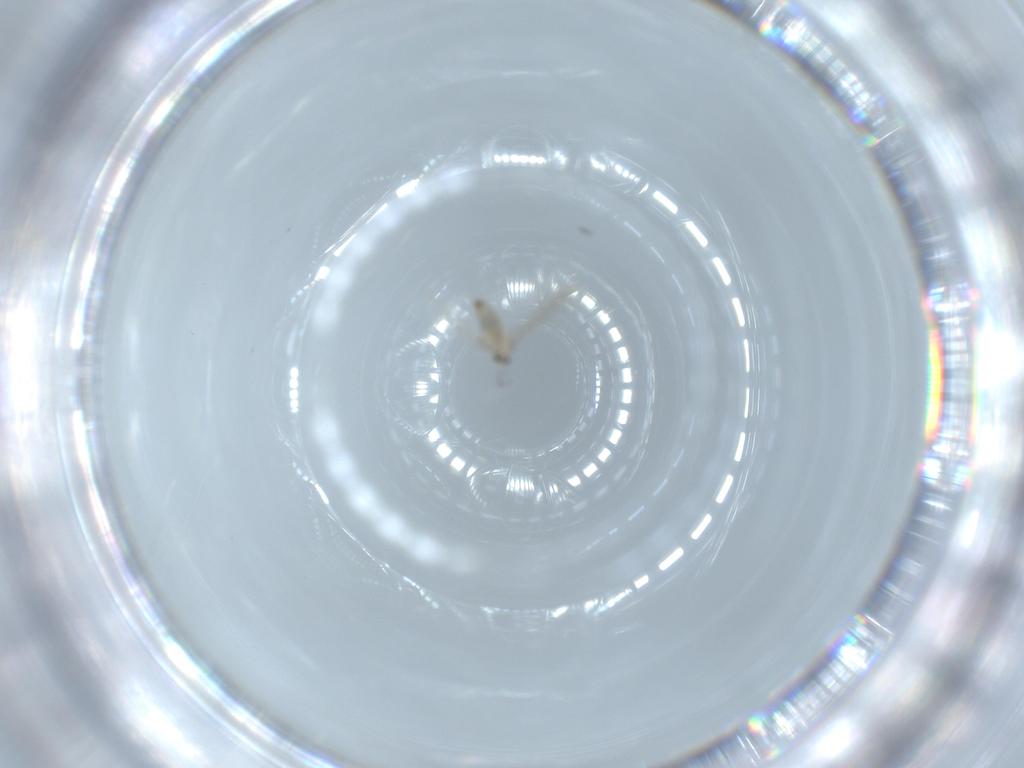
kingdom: Animalia
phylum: Arthropoda
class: Insecta
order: Diptera
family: Cecidomyiidae
